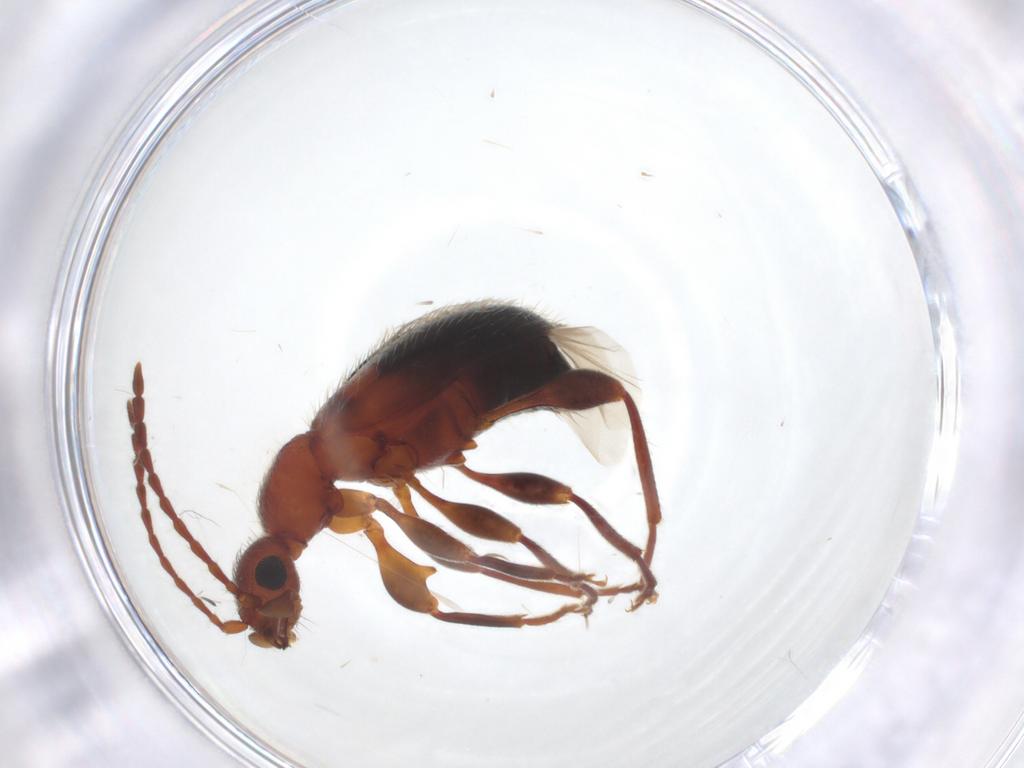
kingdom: Animalia
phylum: Arthropoda
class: Insecta
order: Coleoptera
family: Anthicidae
